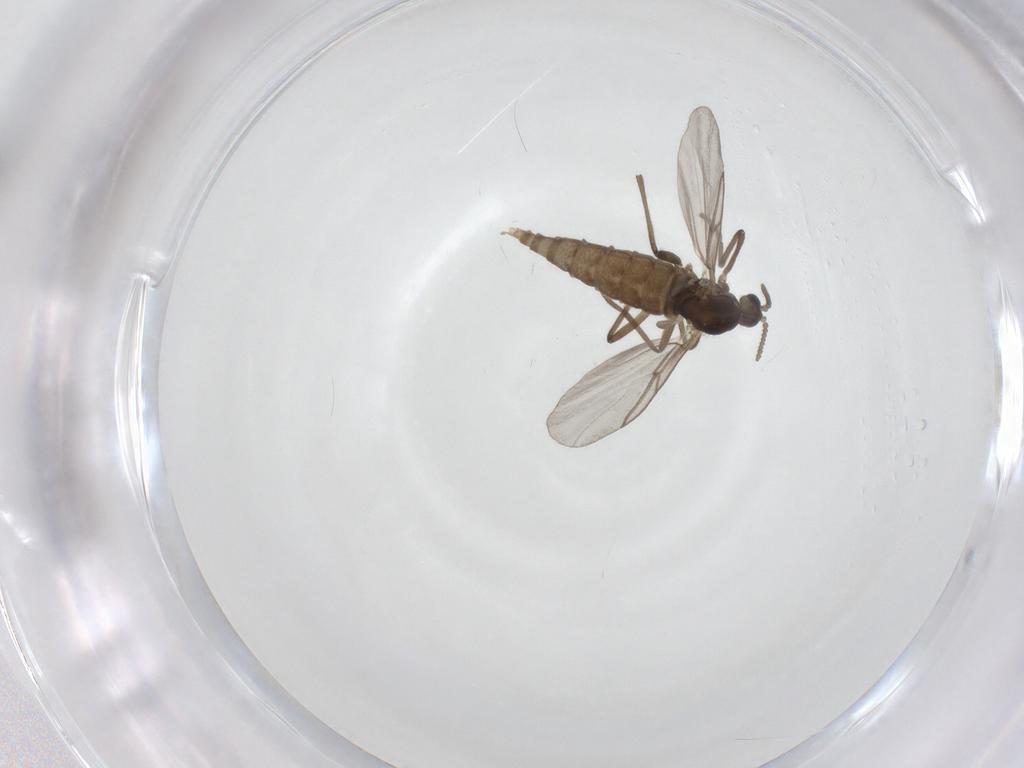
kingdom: Animalia
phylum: Arthropoda
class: Insecta
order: Diptera
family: Cecidomyiidae
